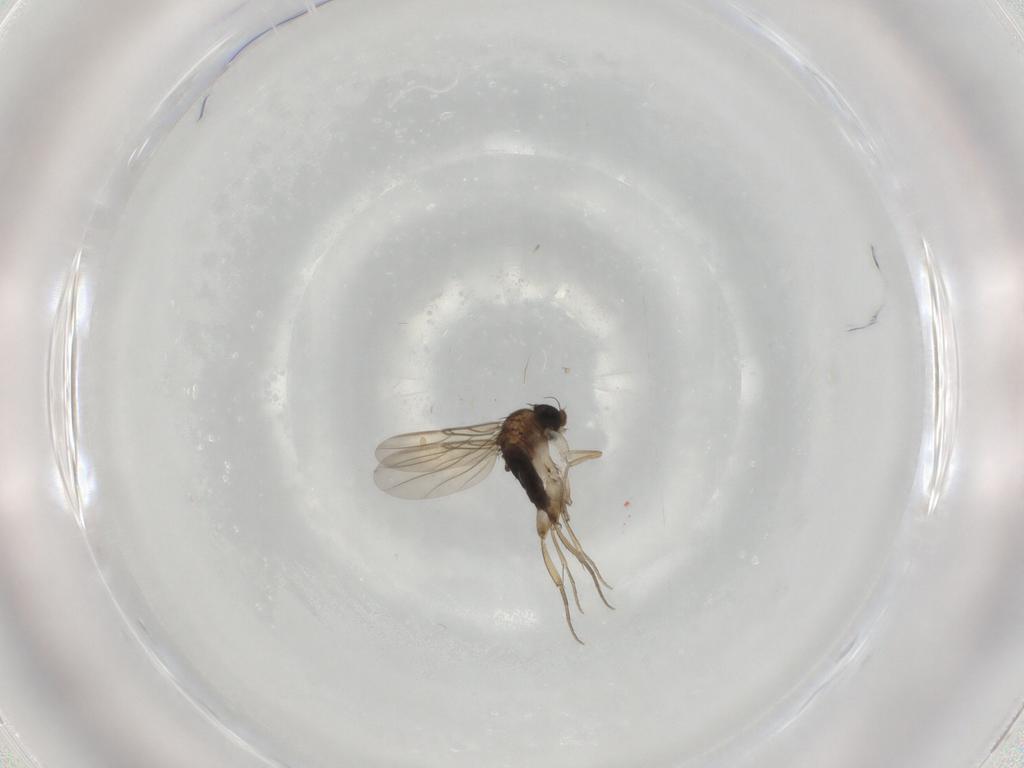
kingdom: Animalia
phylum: Arthropoda
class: Insecta
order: Diptera
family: Phoridae
